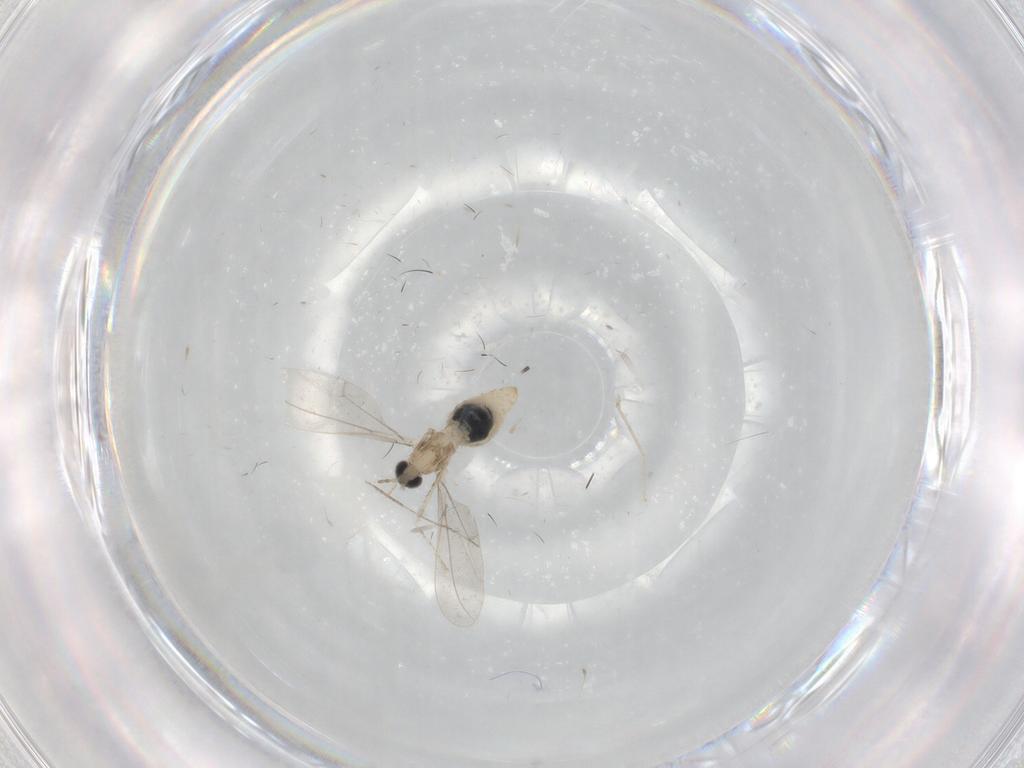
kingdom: Animalia
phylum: Arthropoda
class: Insecta
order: Diptera
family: Cecidomyiidae
